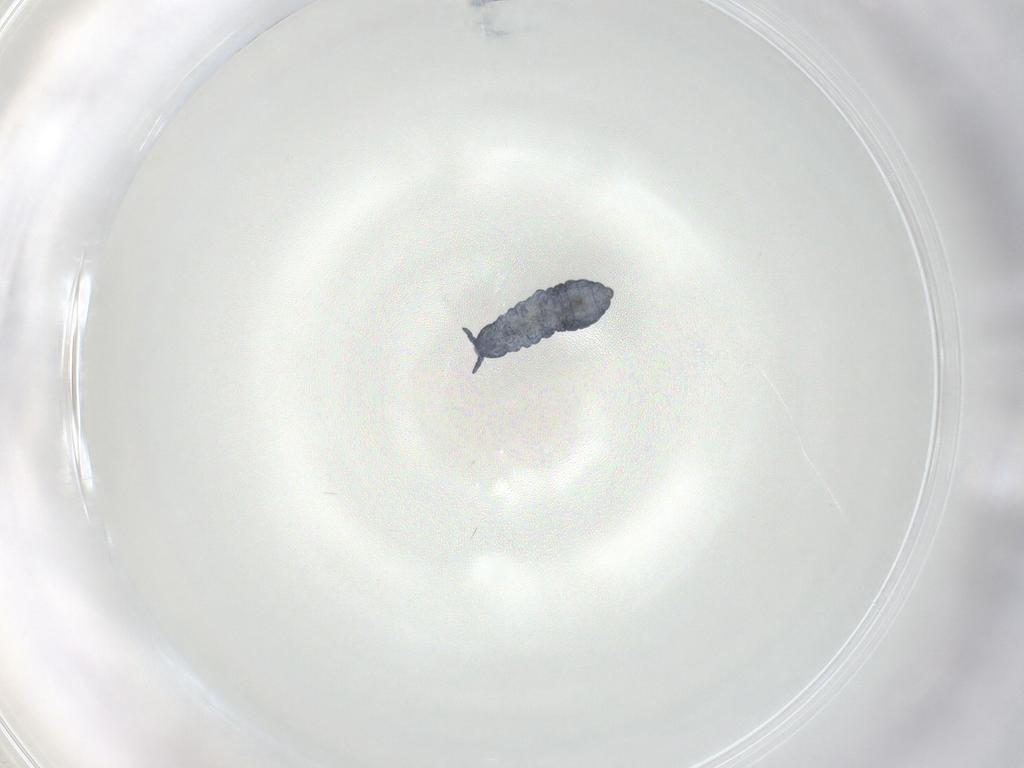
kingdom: Animalia
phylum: Arthropoda
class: Collembola
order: Poduromorpha
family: Hypogastruridae
